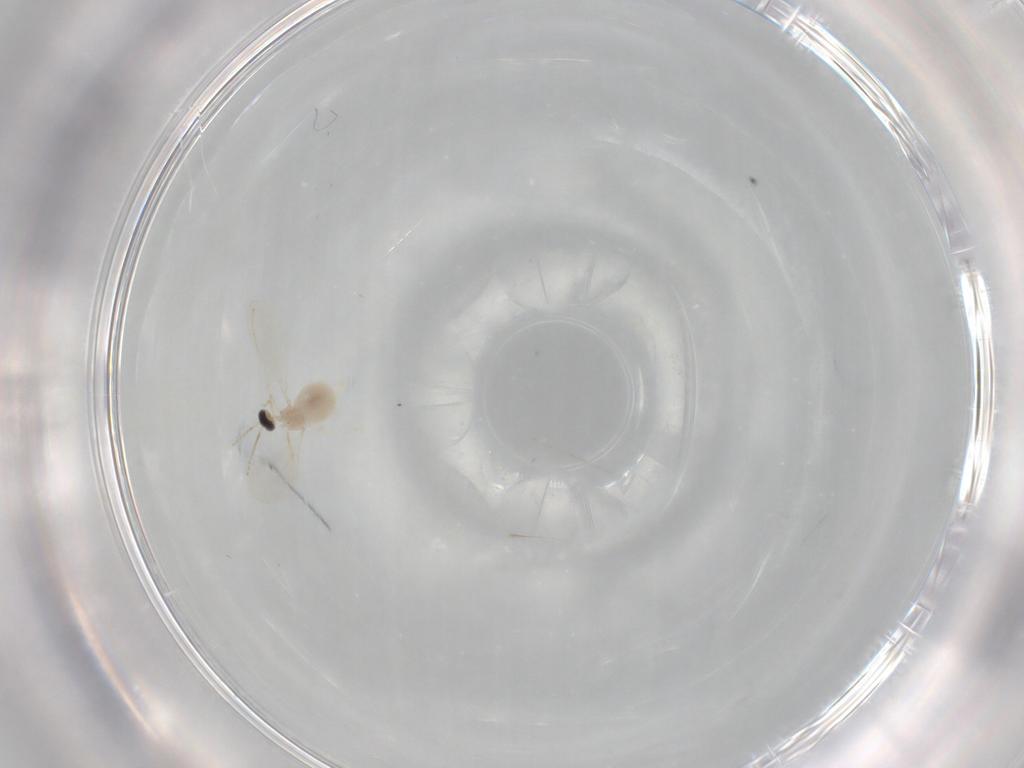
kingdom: Animalia
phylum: Arthropoda
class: Insecta
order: Diptera
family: Cecidomyiidae
